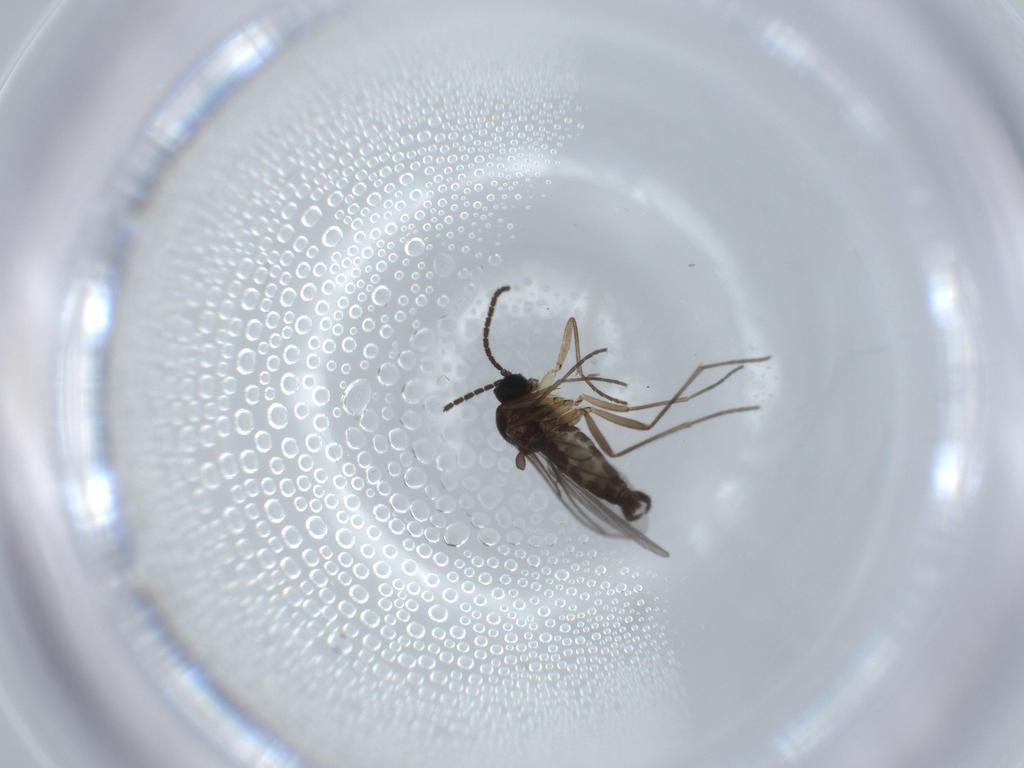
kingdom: Animalia
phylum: Arthropoda
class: Insecta
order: Diptera
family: Sciaridae
